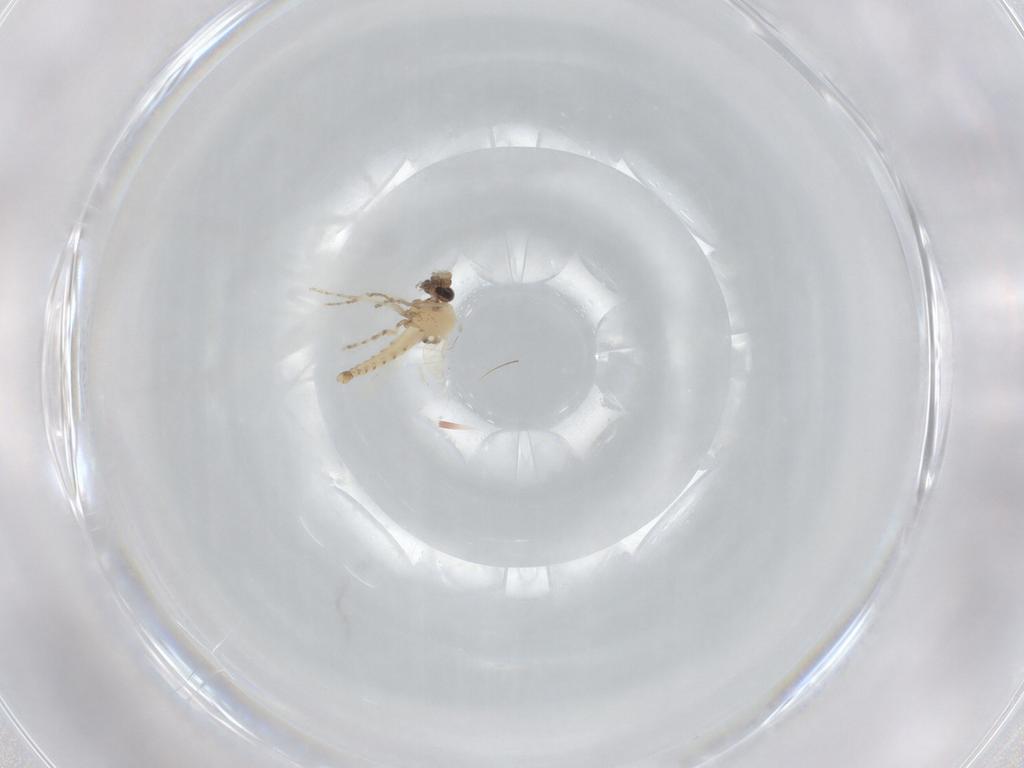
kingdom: Animalia
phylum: Arthropoda
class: Insecta
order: Diptera
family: Ceratopogonidae
